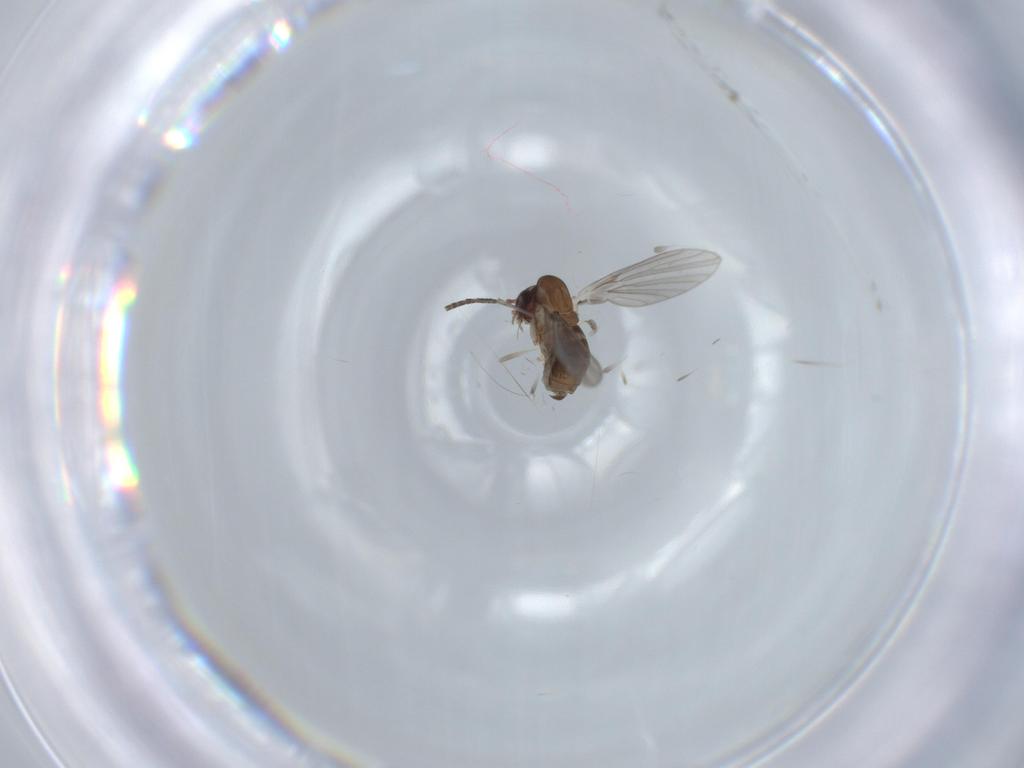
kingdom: Animalia
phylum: Arthropoda
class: Insecta
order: Diptera
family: Psychodidae
